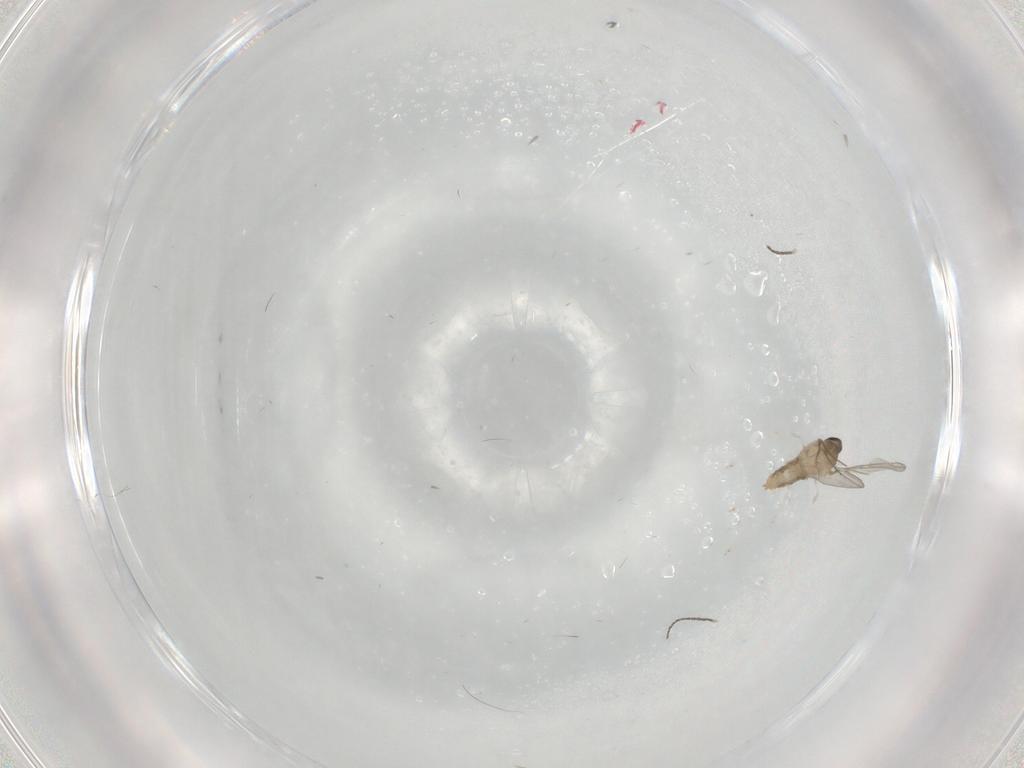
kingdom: Animalia
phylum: Arthropoda
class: Insecta
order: Diptera
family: Cecidomyiidae
